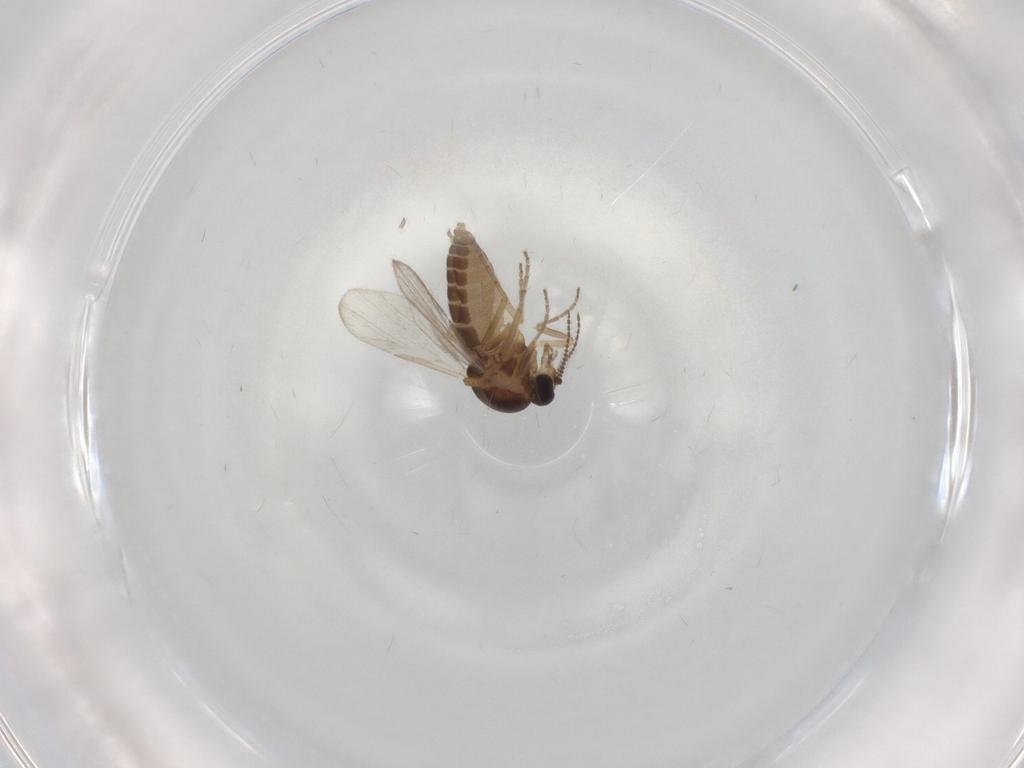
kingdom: Animalia
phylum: Arthropoda
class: Insecta
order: Diptera
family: Ceratopogonidae
